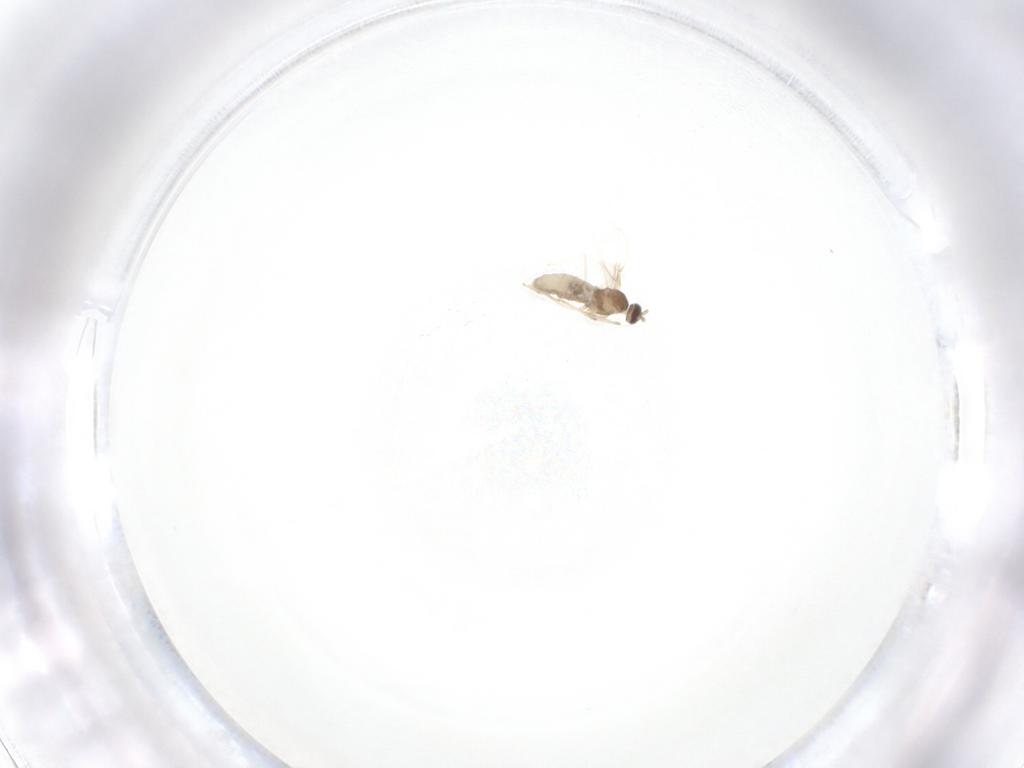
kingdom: Animalia
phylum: Arthropoda
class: Insecta
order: Diptera
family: Cecidomyiidae
